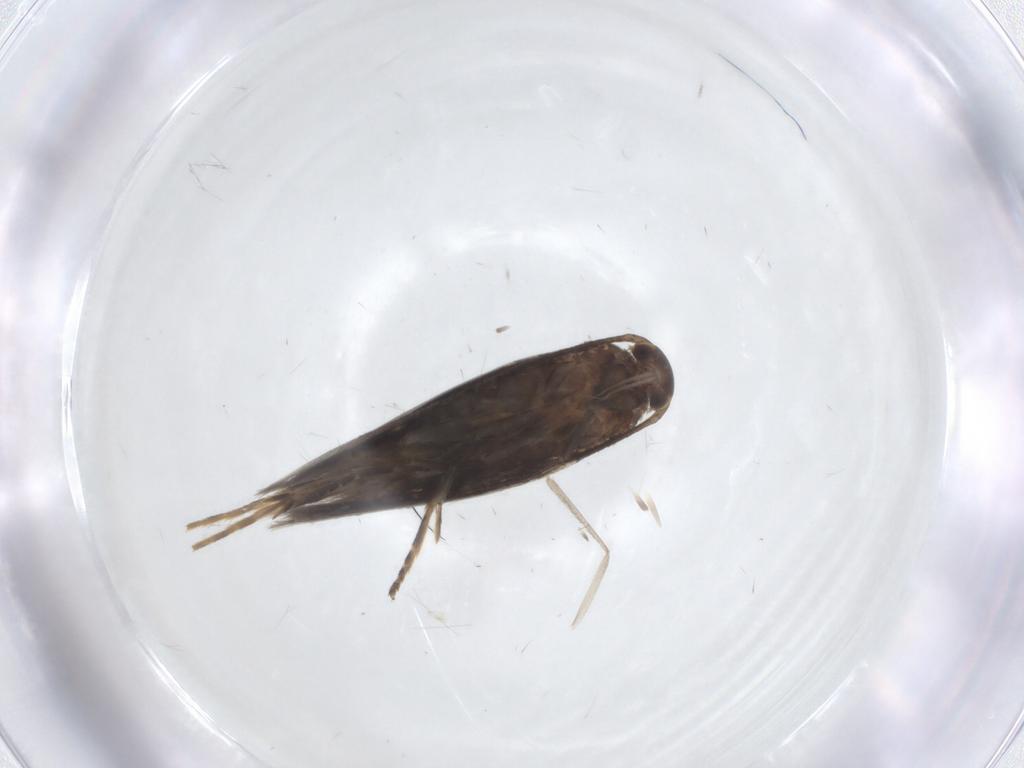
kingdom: Animalia
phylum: Arthropoda
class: Insecta
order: Lepidoptera
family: Elachistidae
